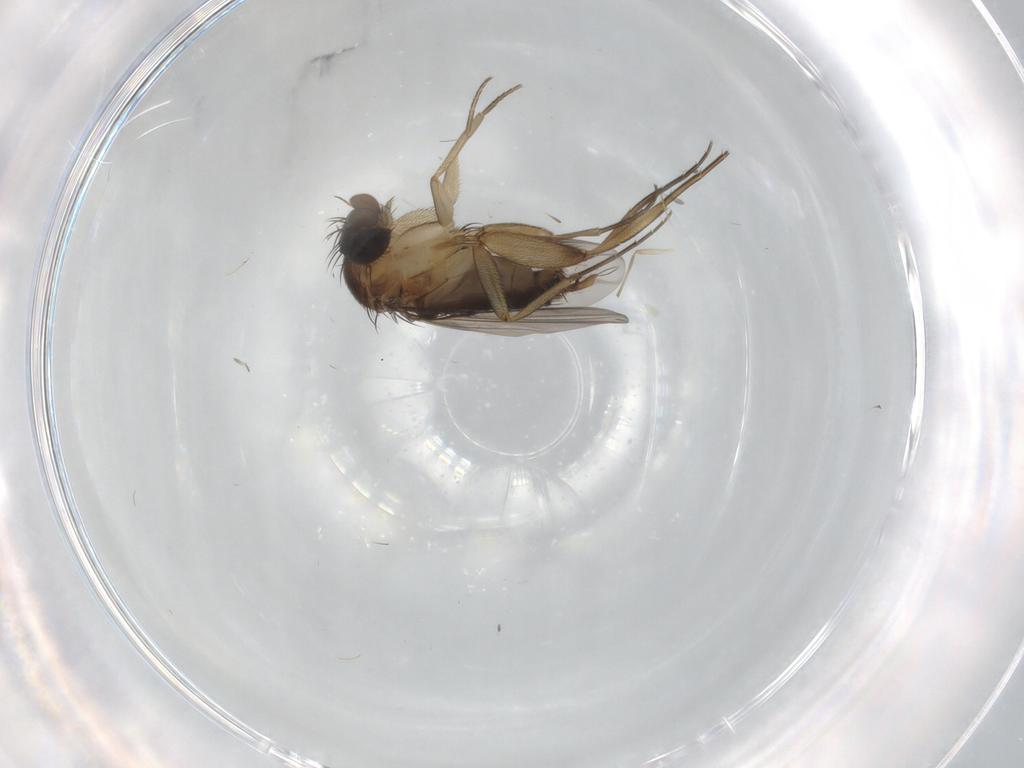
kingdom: Animalia
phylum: Arthropoda
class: Insecta
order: Diptera
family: Phoridae
